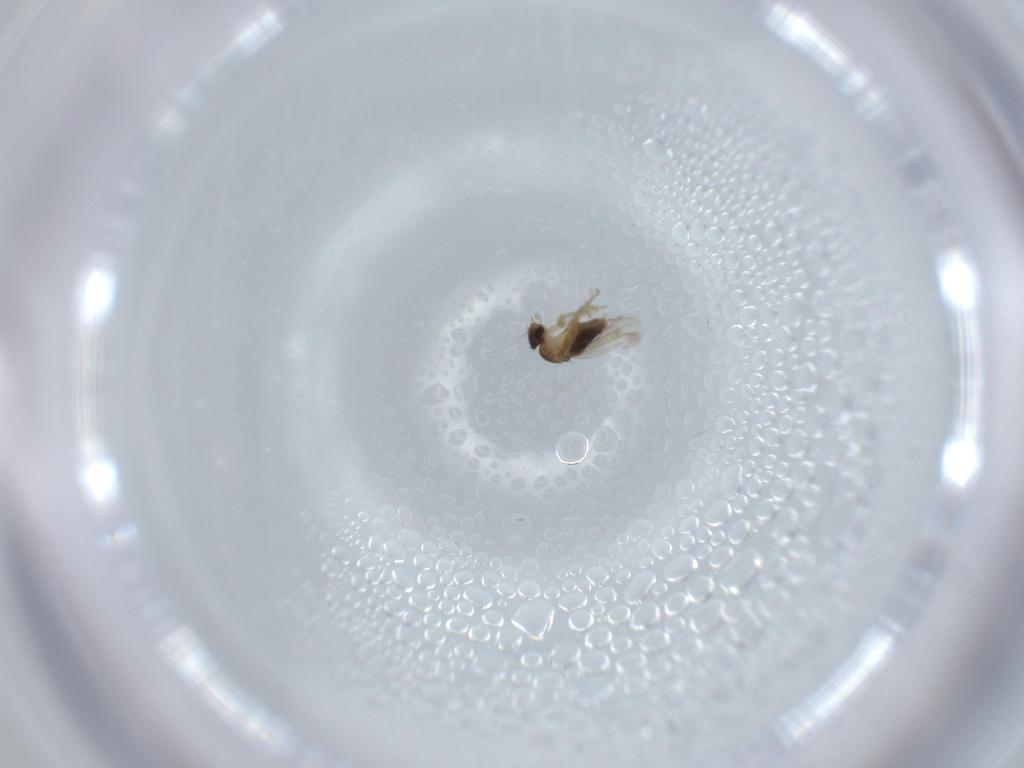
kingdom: Animalia
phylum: Arthropoda
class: Insecta
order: Diptera
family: Phoridae
